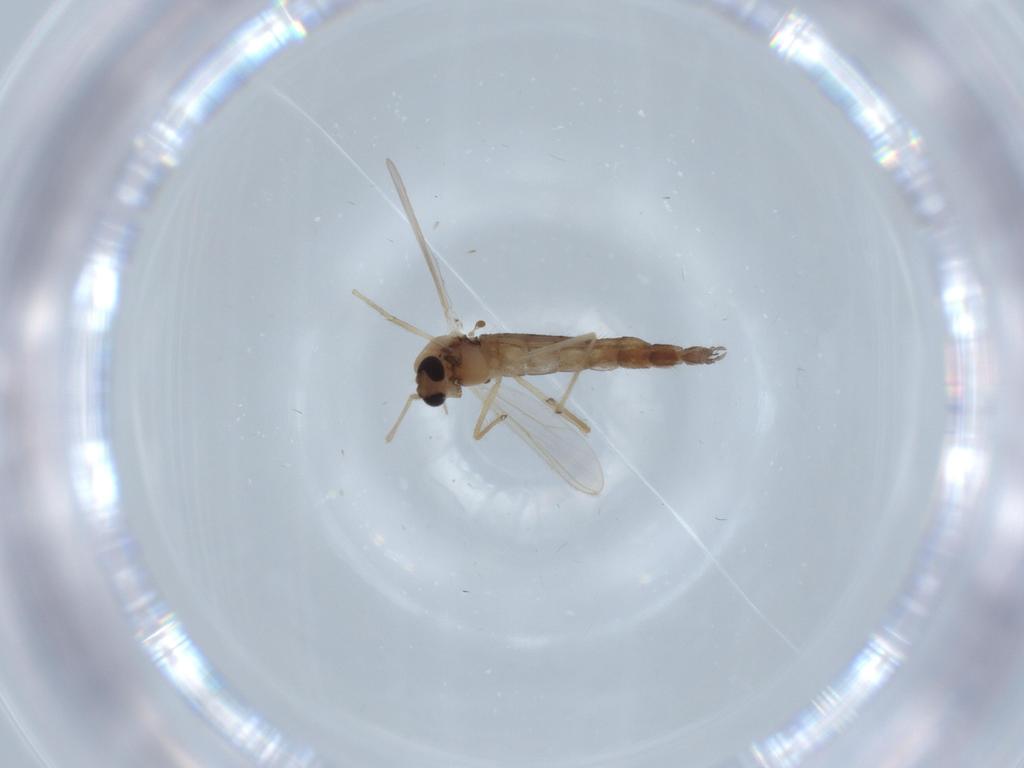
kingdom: Animalia
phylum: Arthropoda
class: Insecta
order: Diptera
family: Chironomidae
